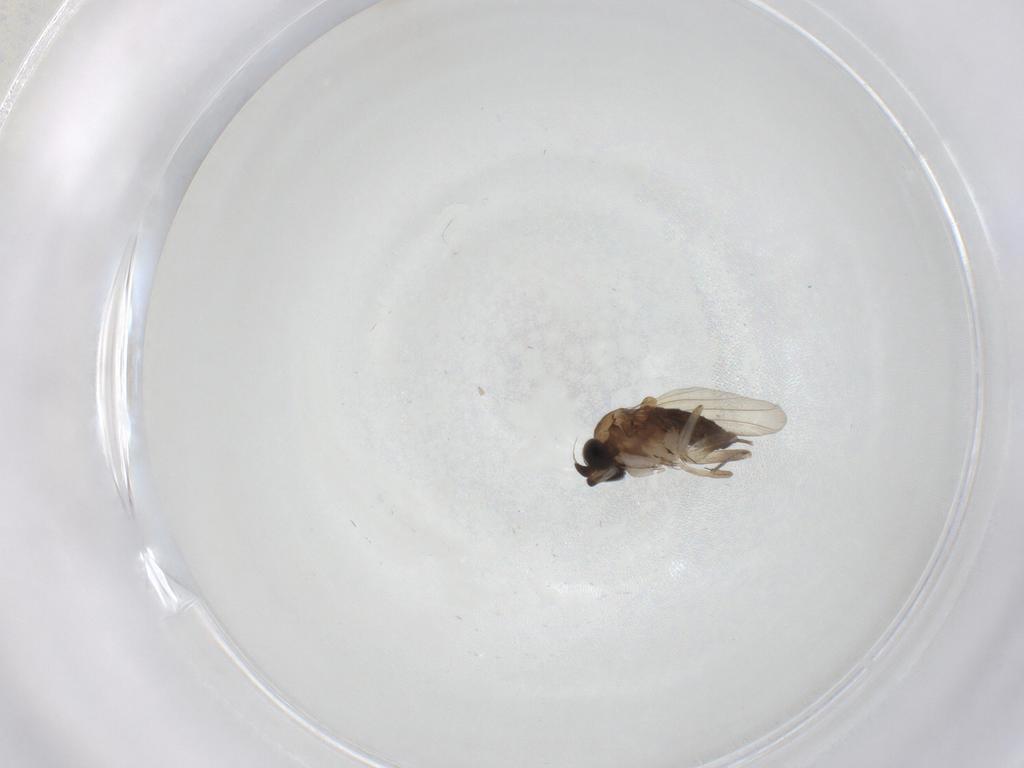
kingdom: Animalia
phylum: Arthropoda
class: Insecta
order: Diptera
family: Phoridae
